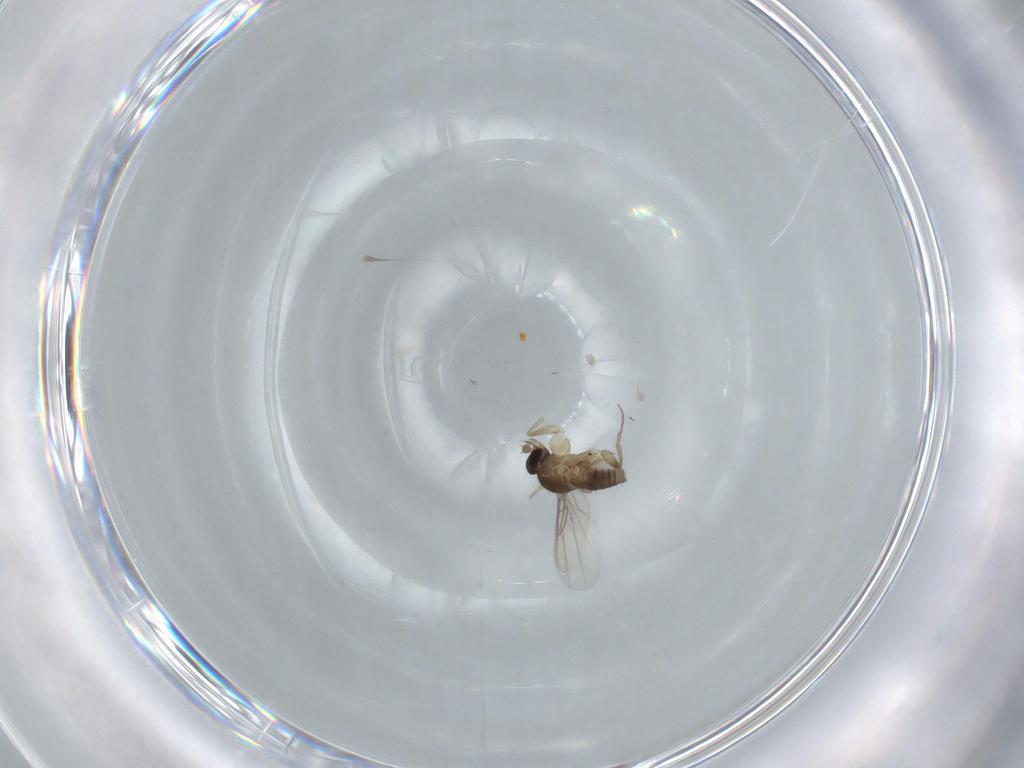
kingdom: Animalia
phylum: Arthropoda
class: Insecta
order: Diptera
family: Phoridae
